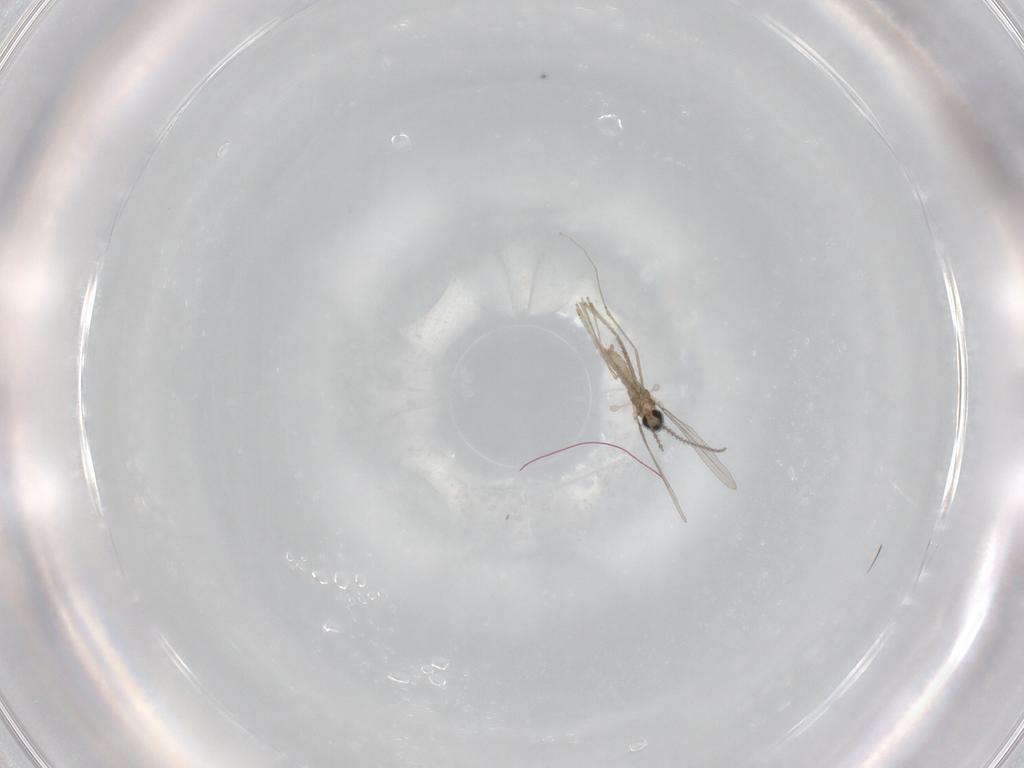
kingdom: Animalia
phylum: Arthropoda
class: Insecta
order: Diptera
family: Cecidomyiidae
